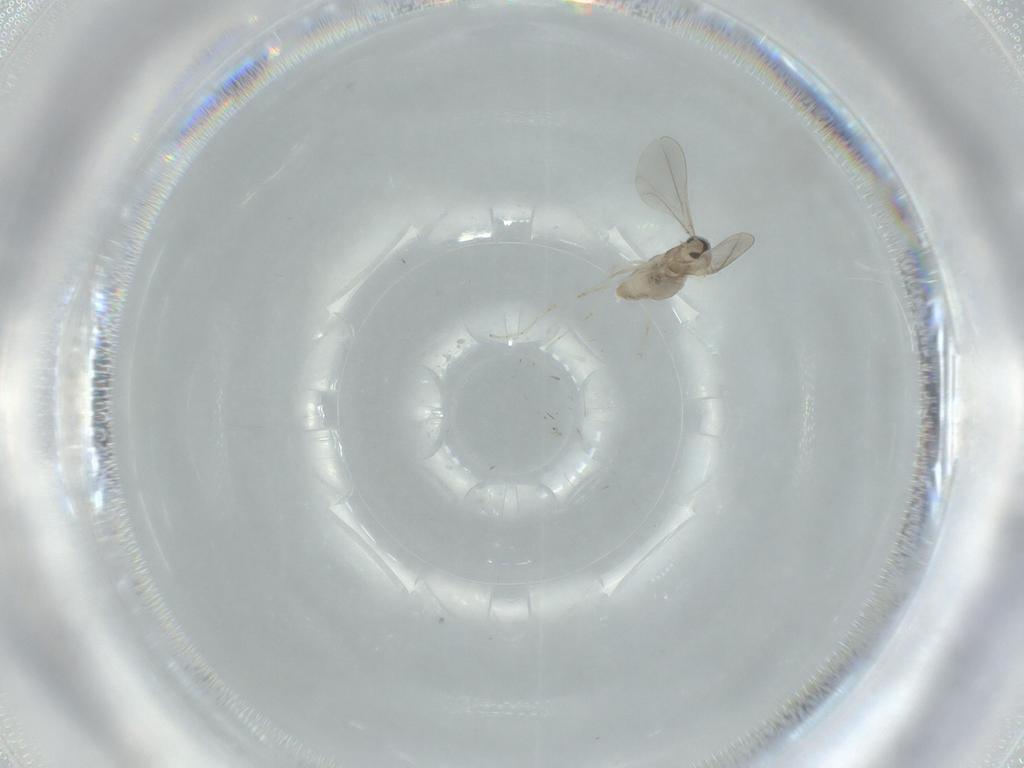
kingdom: Animalia
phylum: Arthropoda
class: Insecta
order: Diptera
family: Cecidomyiidae
